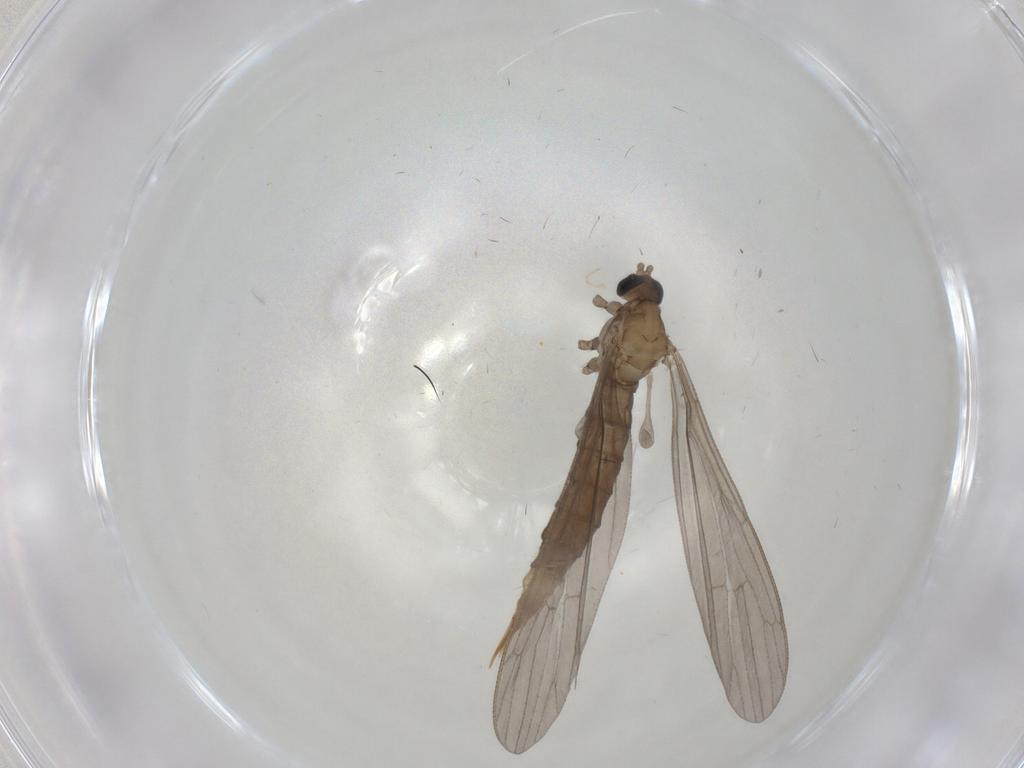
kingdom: Animalia
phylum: Arthropoda
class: Insecta
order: Diptera
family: Limoniidae
